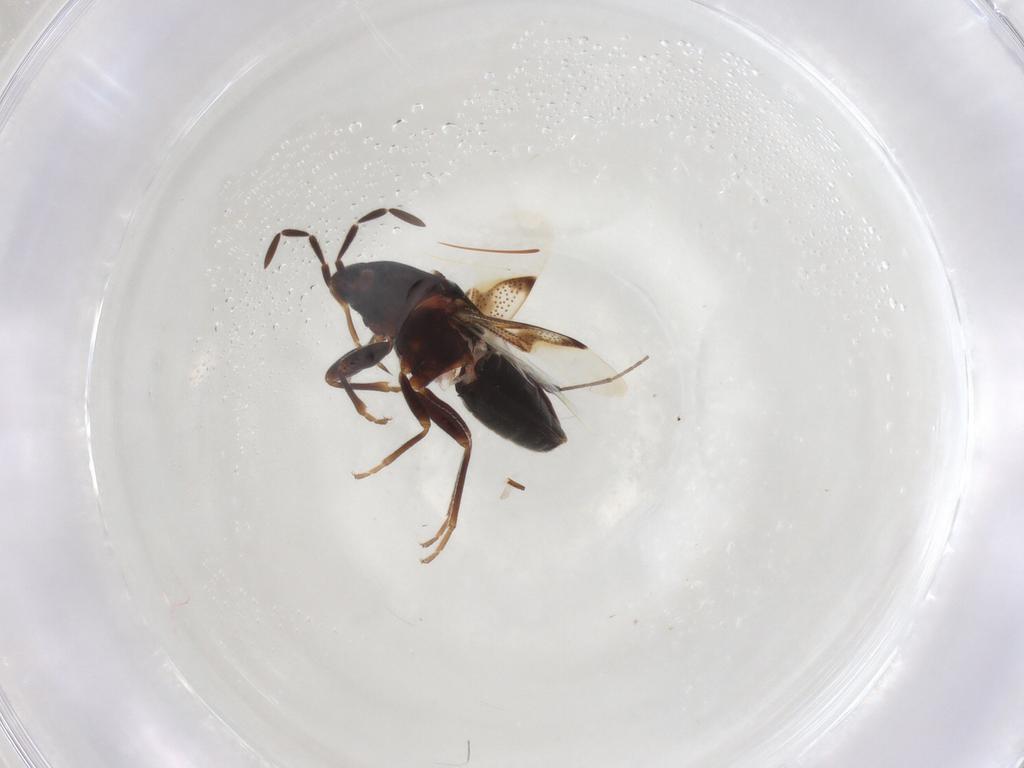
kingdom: Animalia
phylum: Arthropoda
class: Insecta
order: Hemiptera
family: Rhyparochromidae
